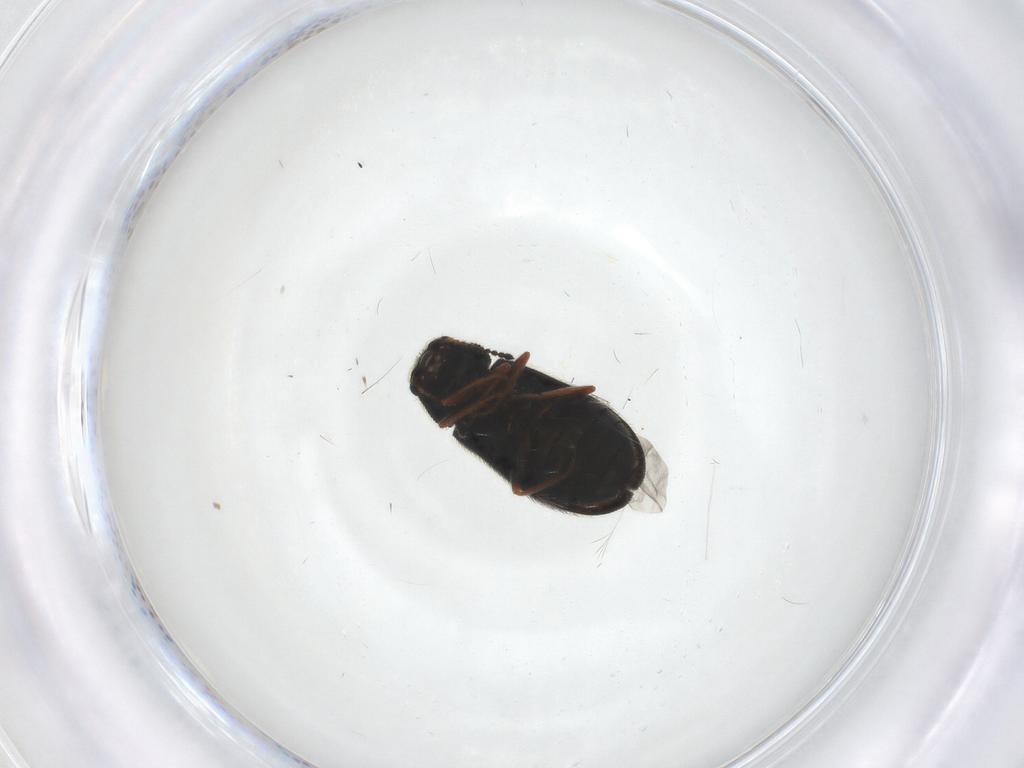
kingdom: Animalia
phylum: Arthropoda
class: Insecta
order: Coleoptera
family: Melyridae
